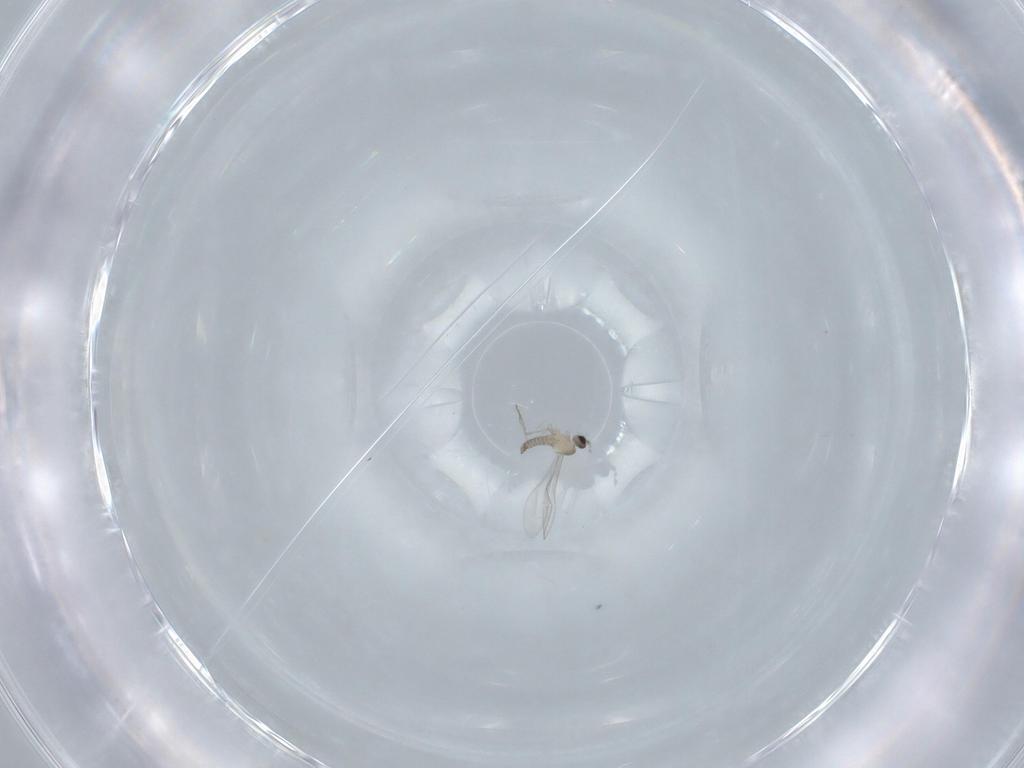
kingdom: Animalia
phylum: Arthropoda
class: Insecta
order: Diptera
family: Cecidomyiidae
